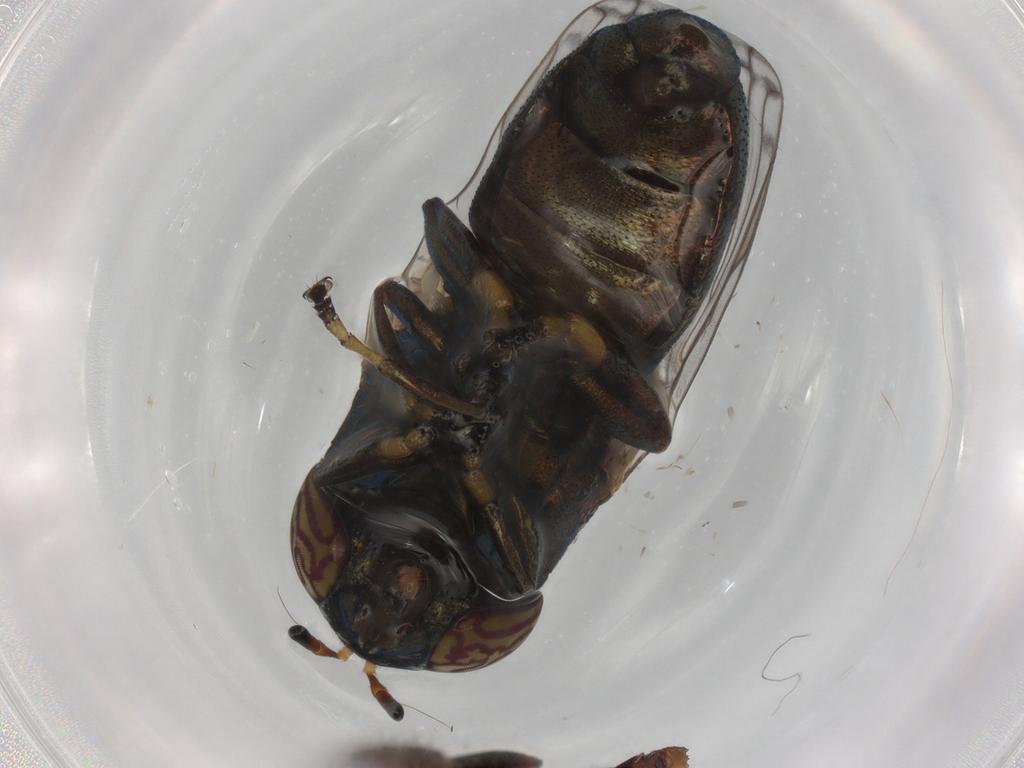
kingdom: Animalia
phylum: Arthropoda
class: Insecta
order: Diptera
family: Syrphidae
